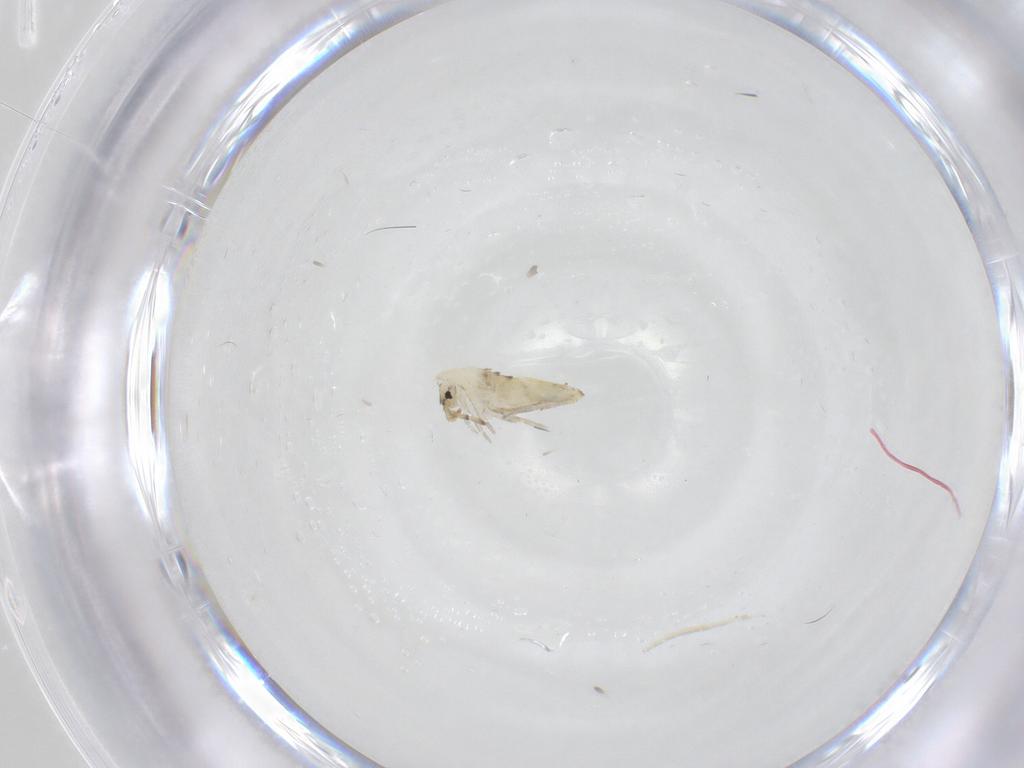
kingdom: Animalia
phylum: Arthropoda
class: Collembola
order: Entomobryomorpha
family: Entomobryidae
